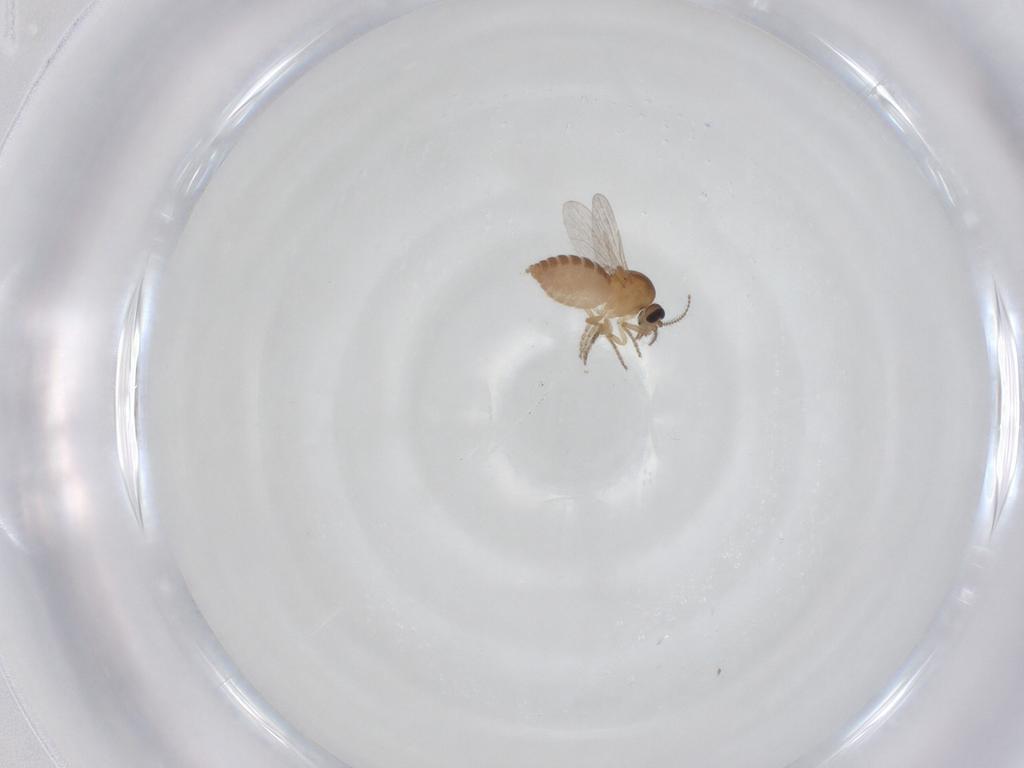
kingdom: Animalia
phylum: Arthropoda
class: Insecta
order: Diptera
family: Ceratopogonidae
